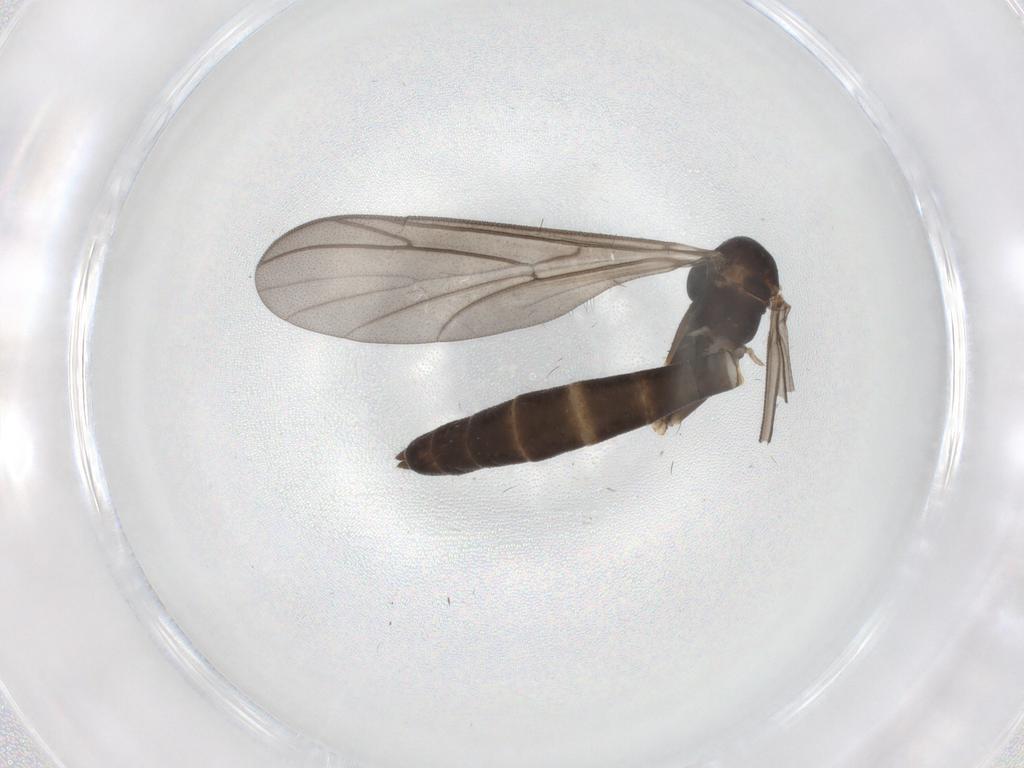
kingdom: Animalia
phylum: Arthropoda
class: Insecta
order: Diptera
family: Keroplatidae
